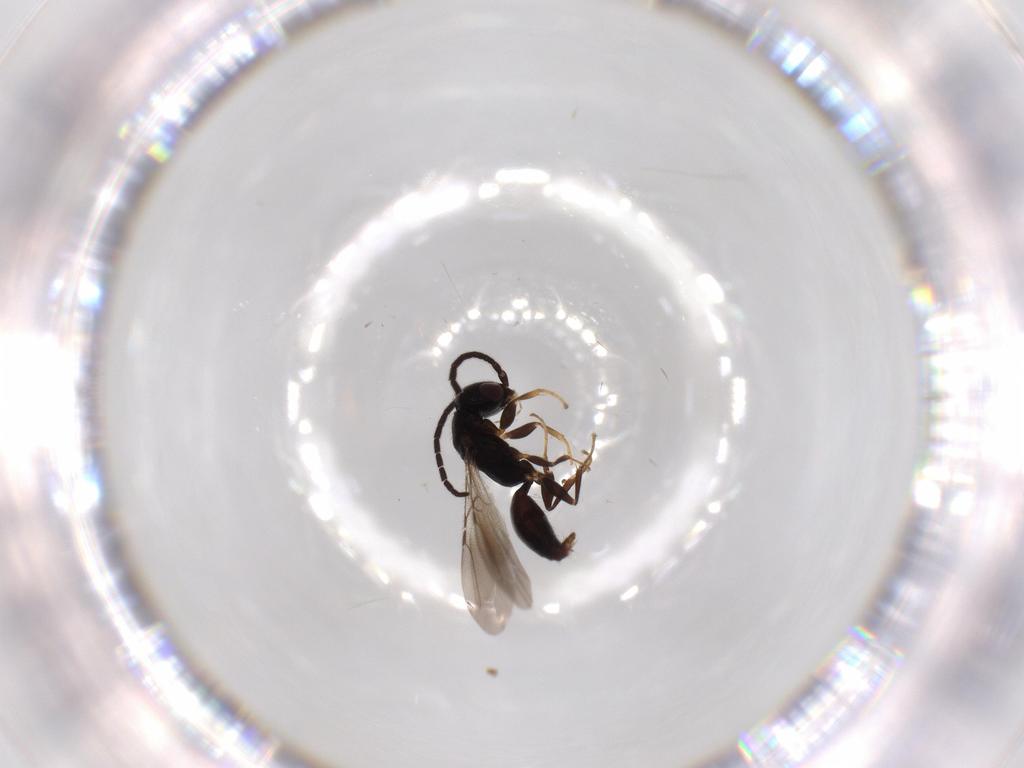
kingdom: Animalia
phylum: Arthropoda
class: Insecta
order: Hymenoptera
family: Bethylidae
